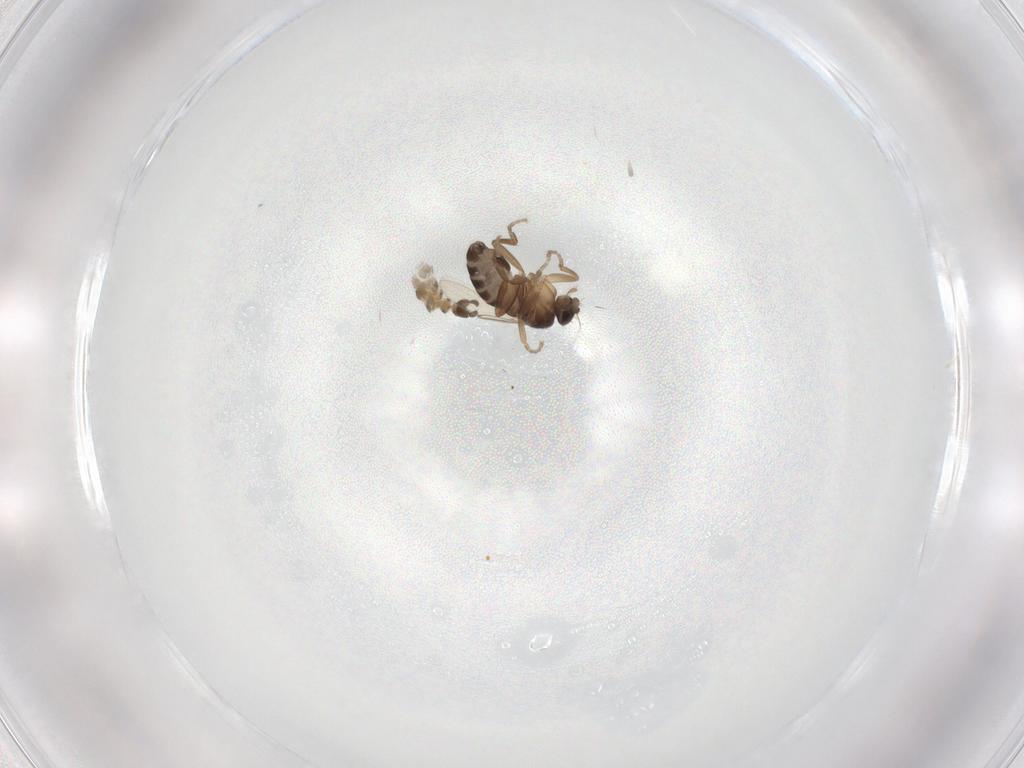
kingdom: Animalia
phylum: Arthropoda
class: Insecta
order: Diptera
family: Phoridae
